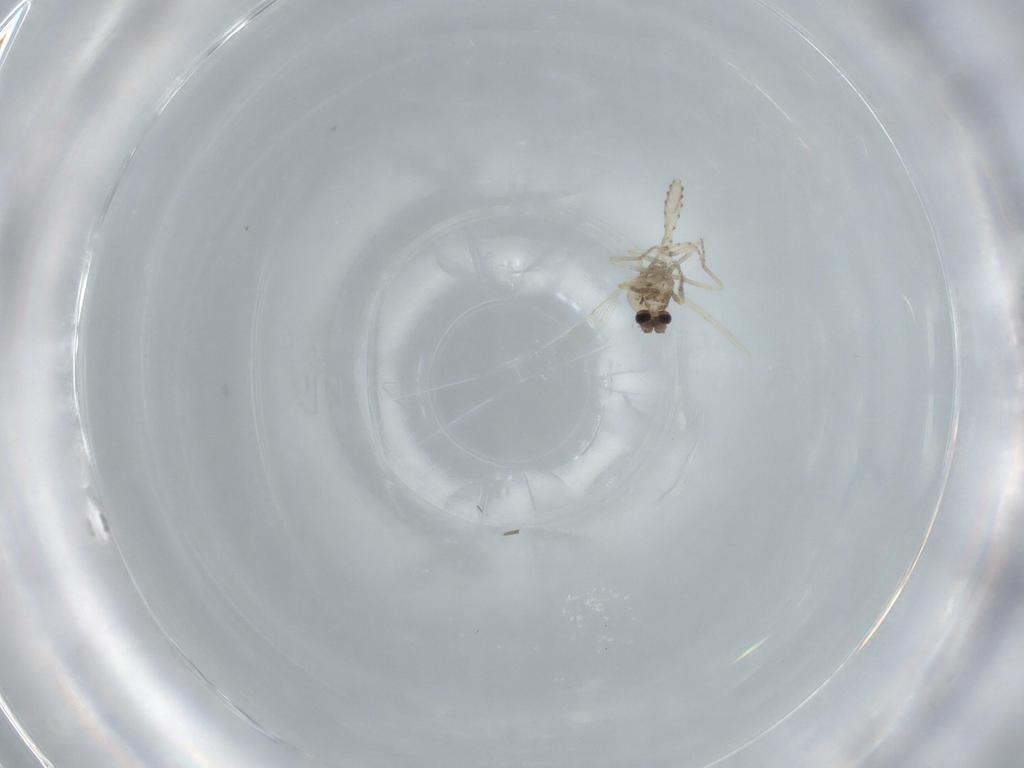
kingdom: Animalia
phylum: Arthropoda
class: Insecta
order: Diptera
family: Ceratopogonidae
